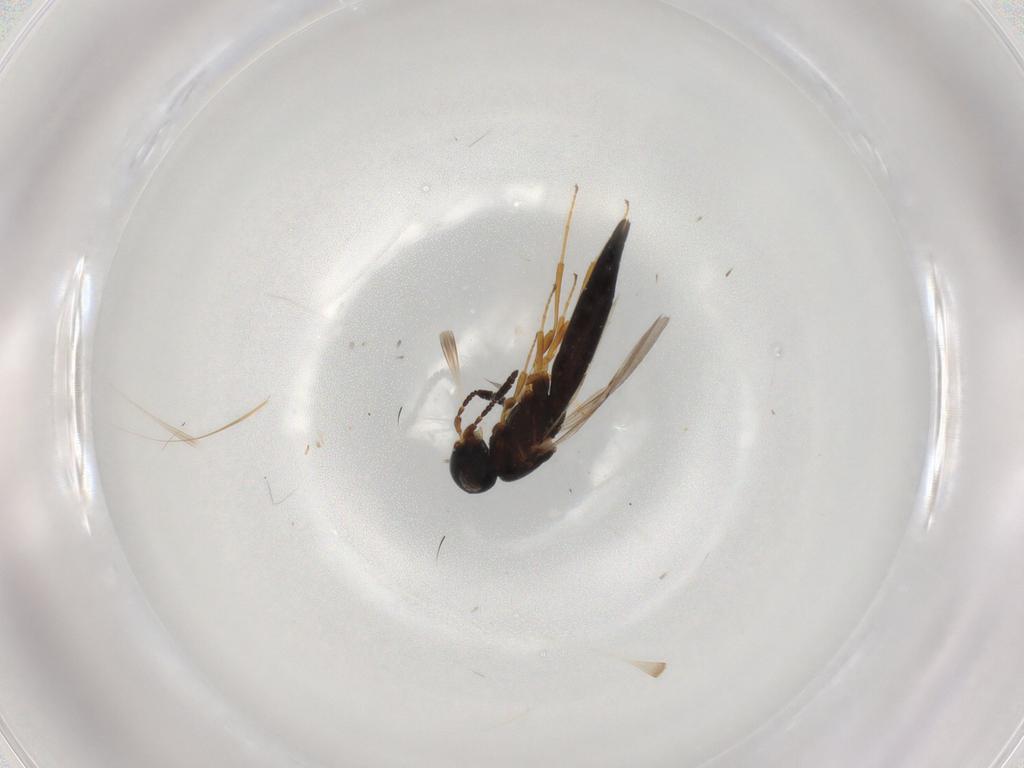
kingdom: Animalia
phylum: Arthropoda
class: Insecta
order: Hymenoptera
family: Scelionidae
